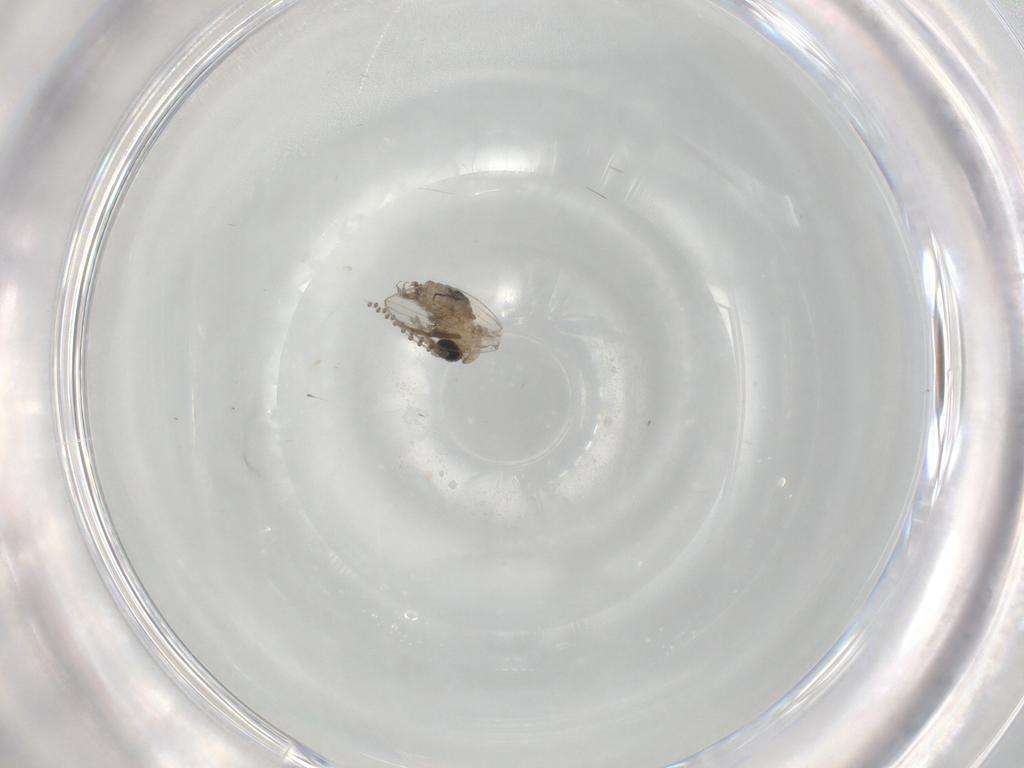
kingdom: Animalia
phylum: Arthropoda
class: Insecta
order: Diptera
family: Psychodidae
